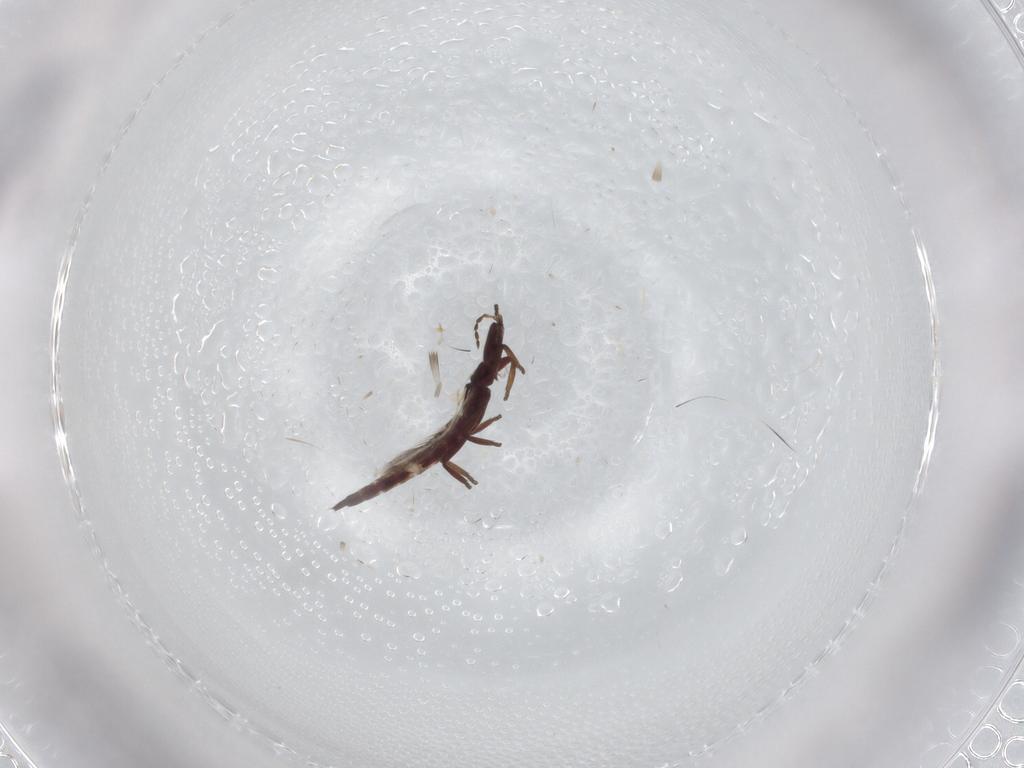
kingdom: Animalia
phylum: Arthropoda
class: Insecta
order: Thysanoptera
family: Phlaeothripidae
